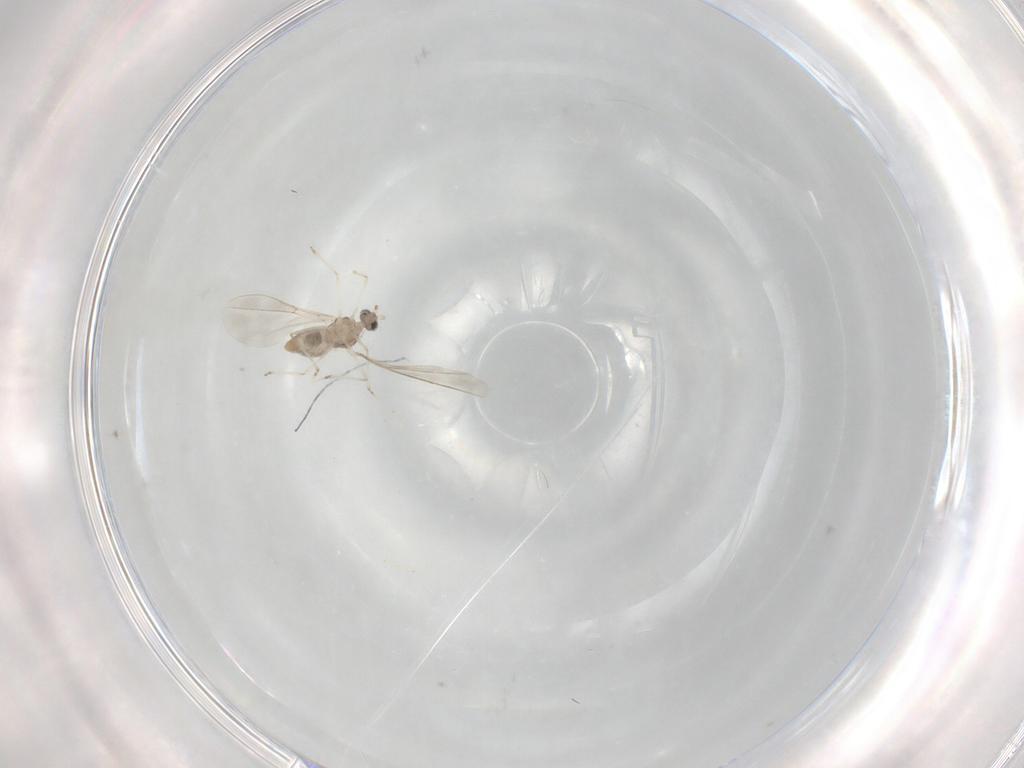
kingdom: Animalia
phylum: Arthropoda
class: Insecta
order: Diptera
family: Cecidomyiidae
